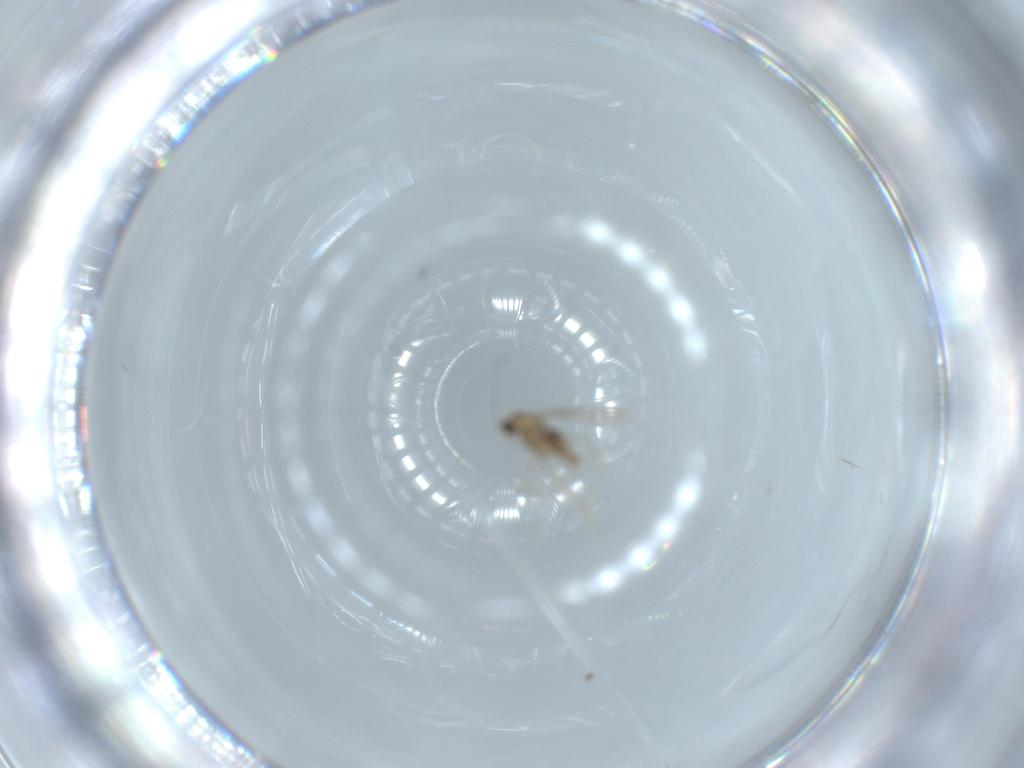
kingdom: Animalia
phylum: Arthropoda
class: Insecta
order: Diptera
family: Cecidomyiidae
